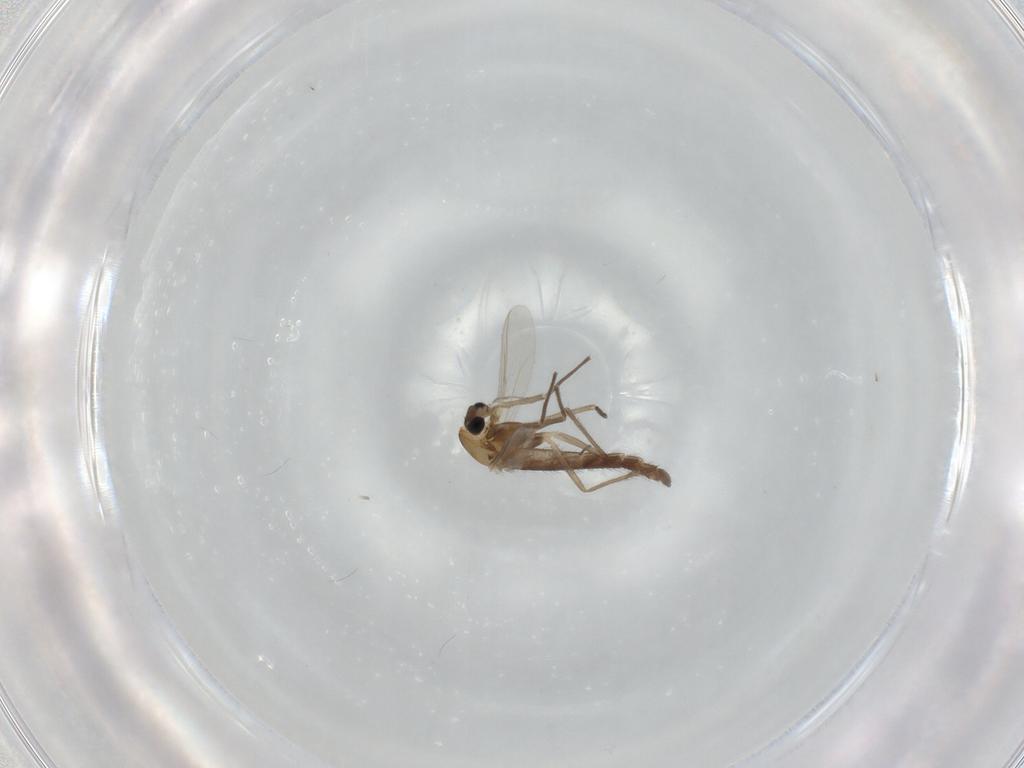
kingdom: Animalia
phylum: Arthropoda
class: Insecta
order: Diptera
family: Chironomidae
